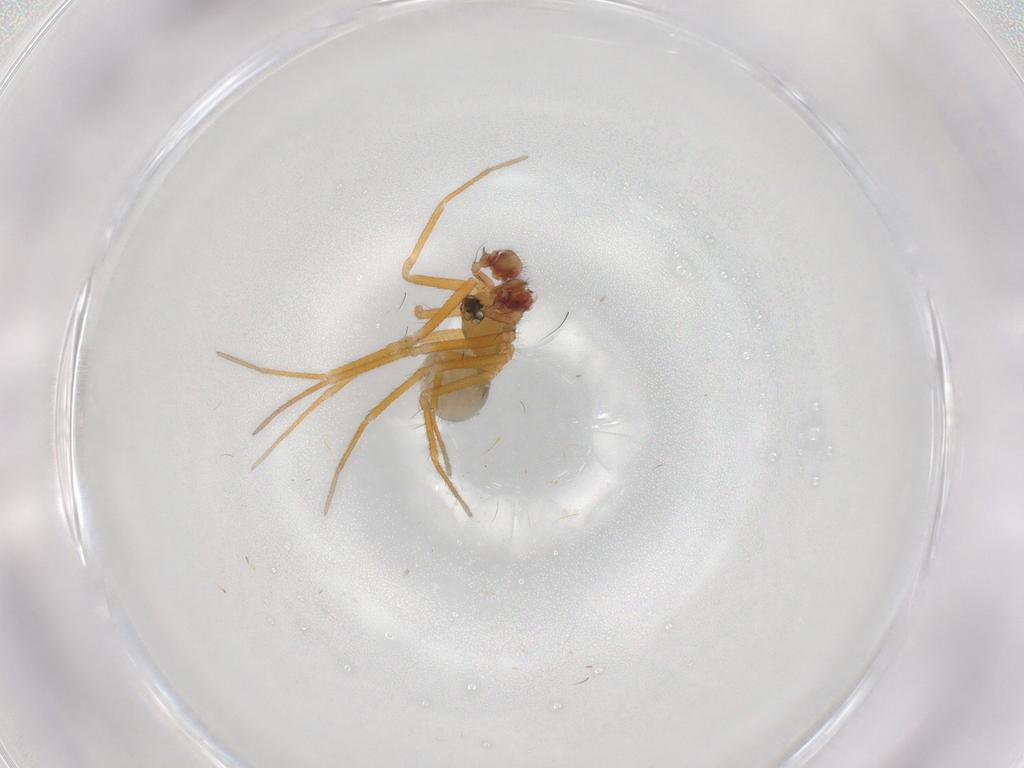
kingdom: Animalia
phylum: Arthropoda
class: Arachnida
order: Araneae
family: Linyphiidae
